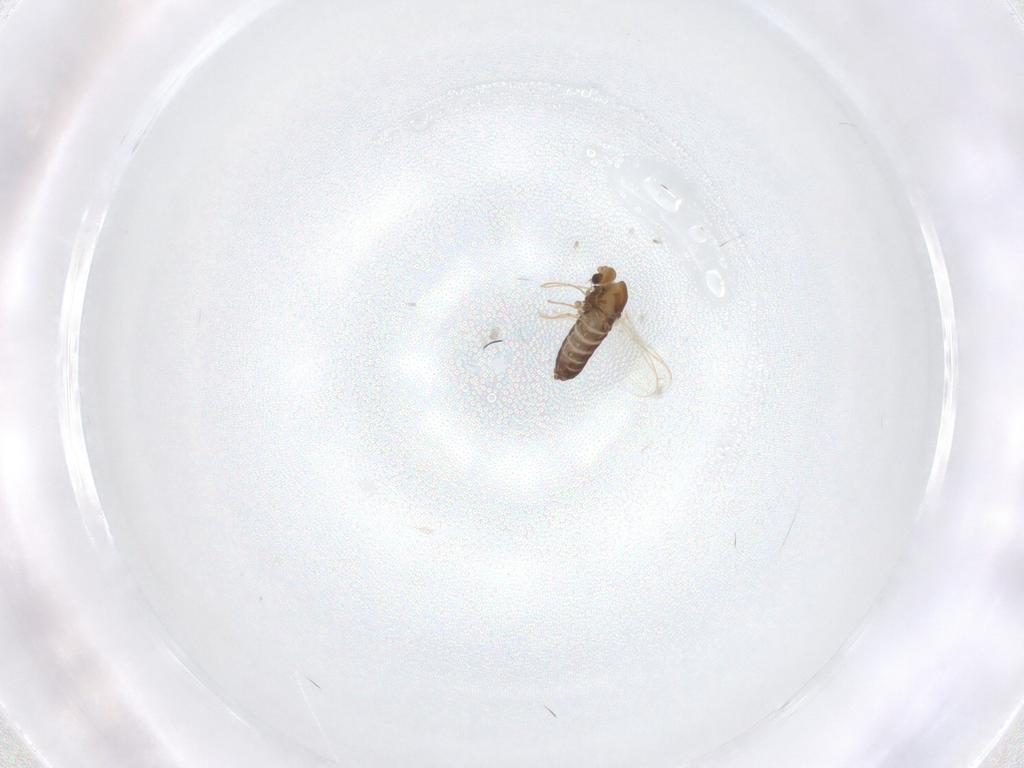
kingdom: Animalia
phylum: Arthropoda
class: Insecta
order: Diptera
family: Chironomidae
